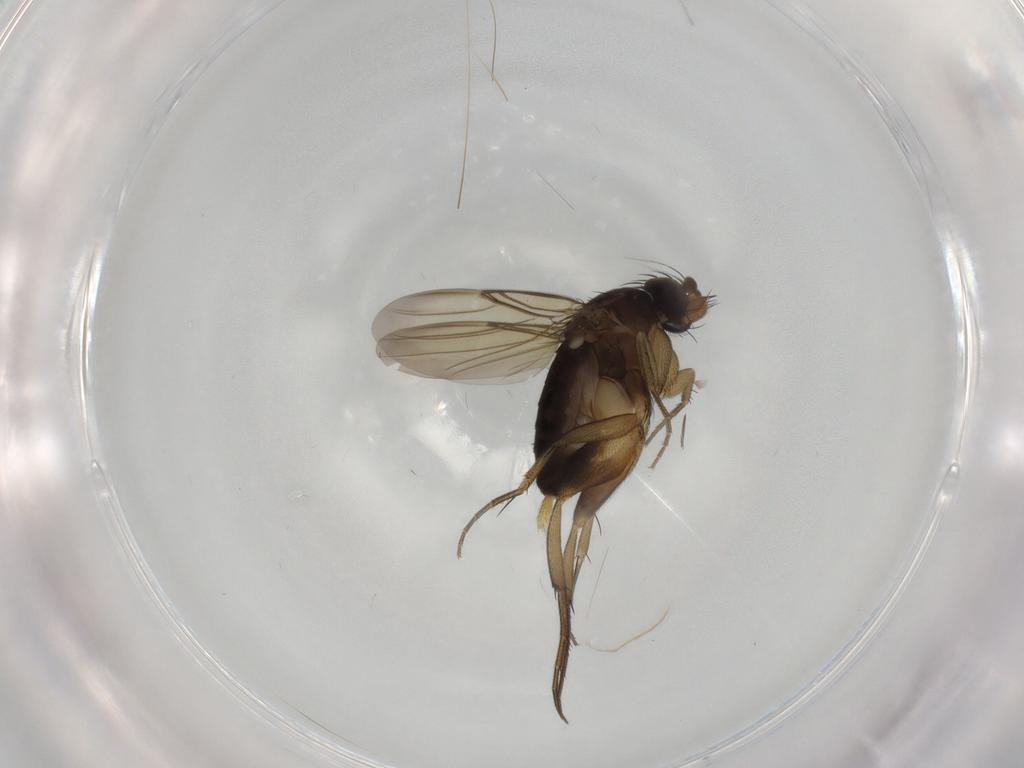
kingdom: Animalia
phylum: Arthropoda
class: Insecta
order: Diptera
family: Phoridae
